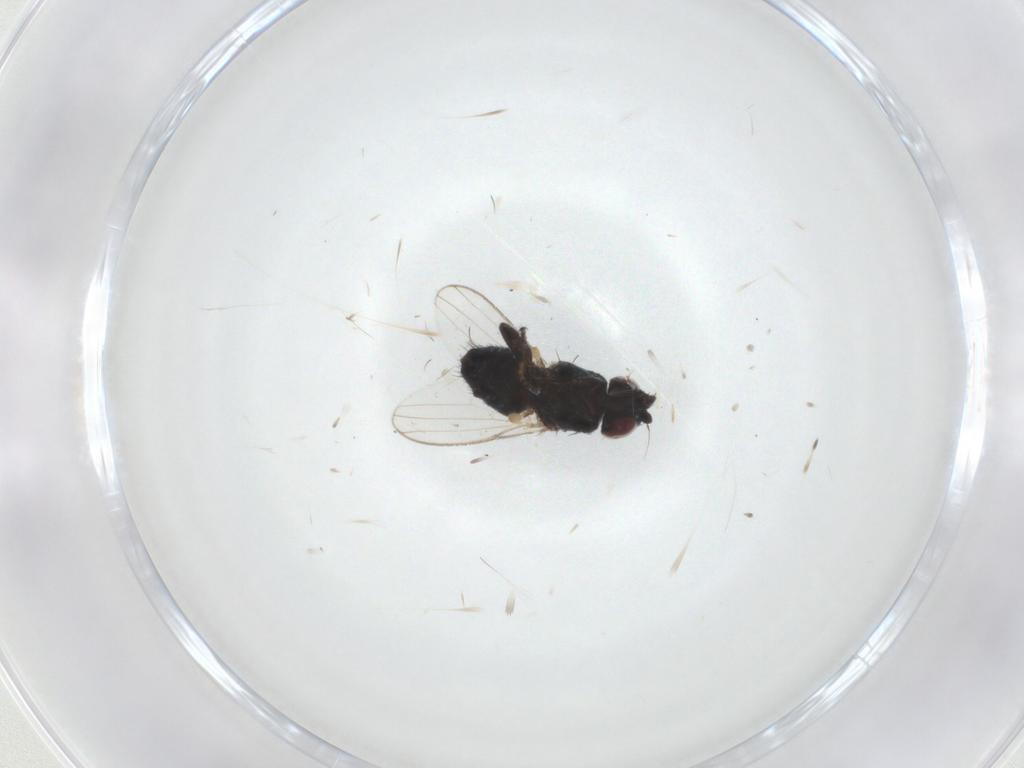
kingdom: Animalia
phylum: Arthropoda
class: Insecta
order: Diptera
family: Milichiidae
